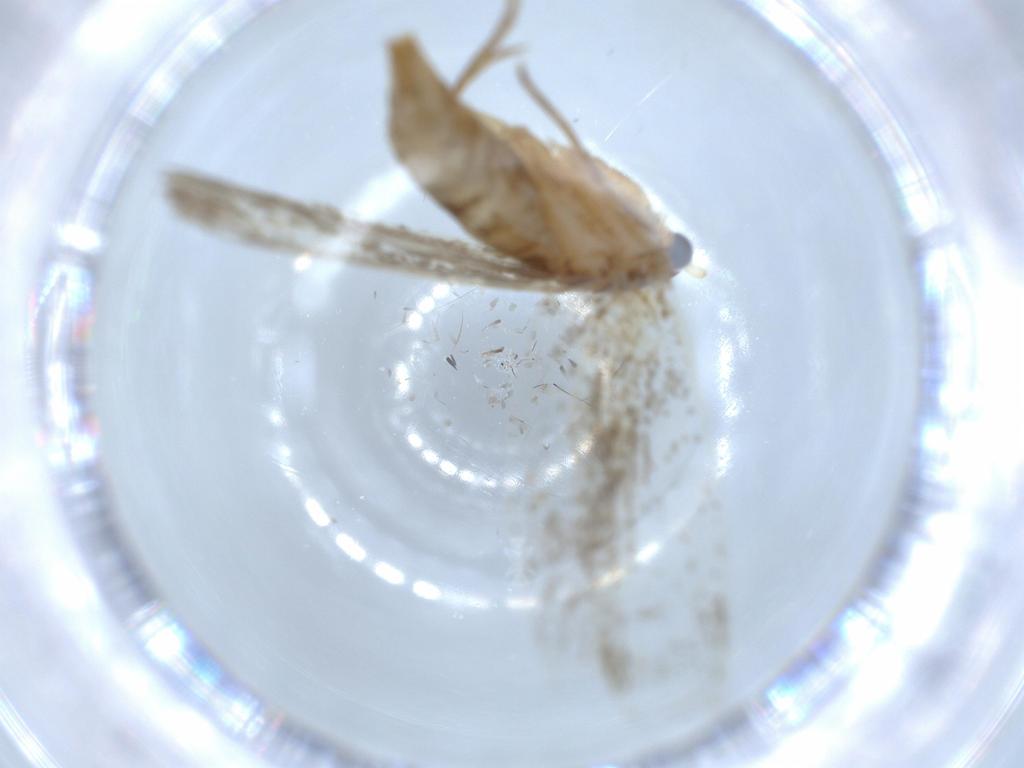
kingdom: Animalia
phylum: Arthropoda
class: Insecta
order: Lepidoptera
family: Tineidae
